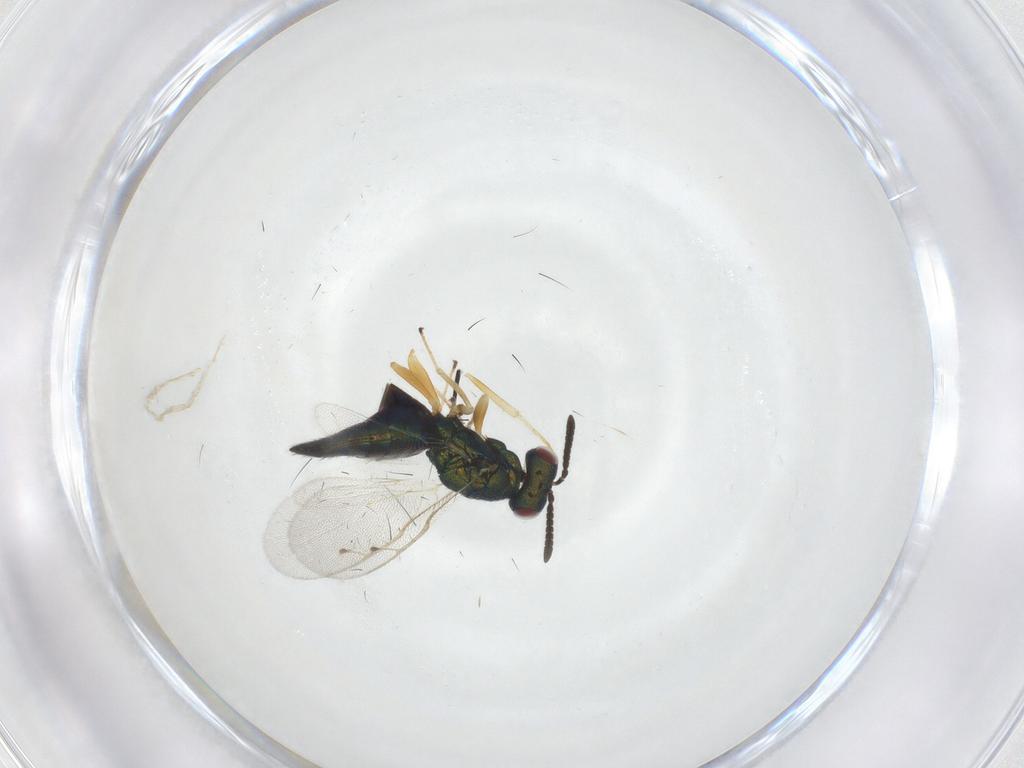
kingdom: Animalia
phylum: Arthropoda
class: Insecta
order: Hymenoptera
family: Pteromalidae
